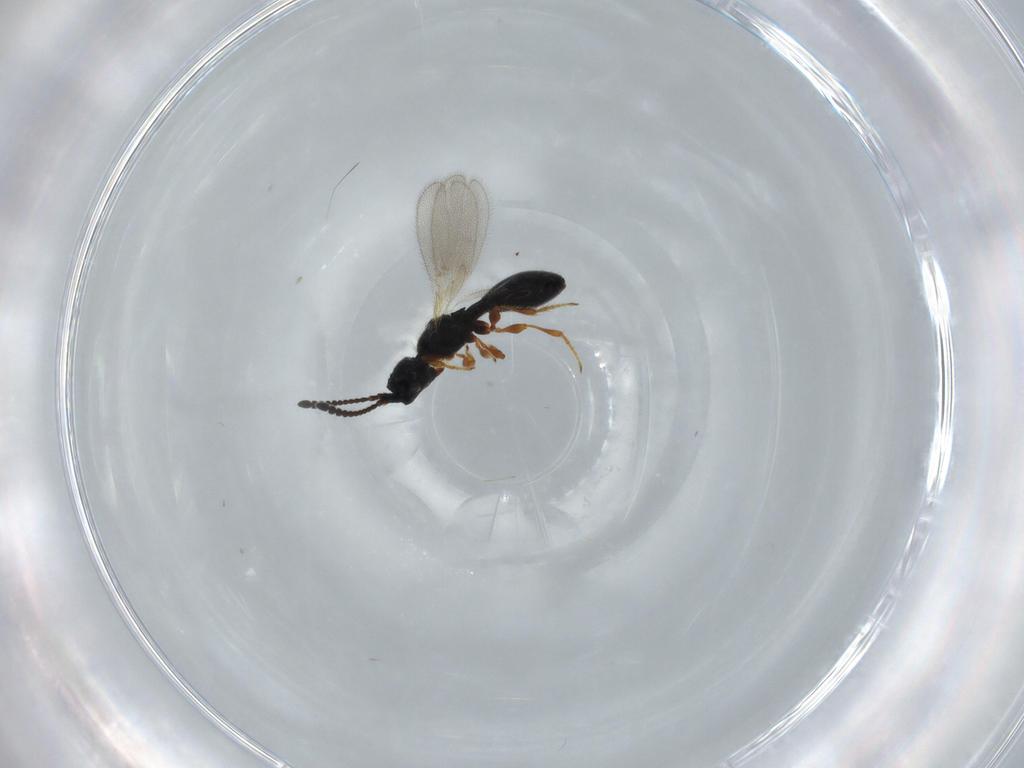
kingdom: Animalia
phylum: Arthropoda
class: Insecta
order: Hymenoptera
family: Diapriidae
